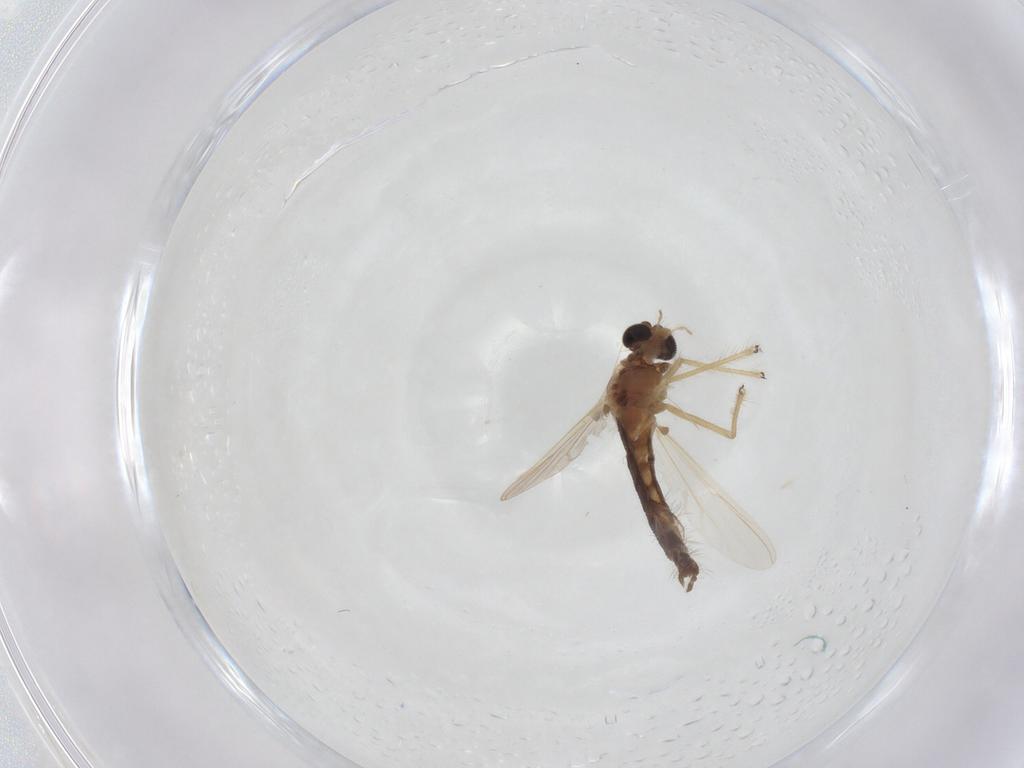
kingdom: Animalia
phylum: Arthropoda
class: Insecta
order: Diptera
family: Chironomidae
